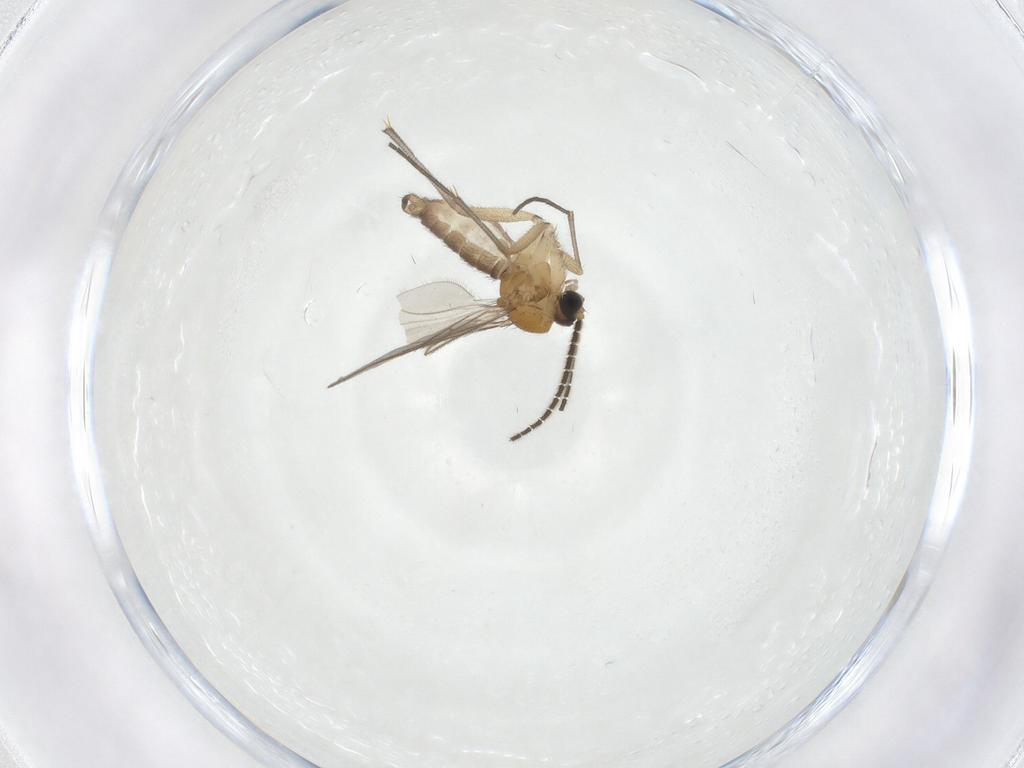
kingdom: Animalia
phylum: Arthropoda
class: Insecta
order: Diptera
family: Sciaridae
